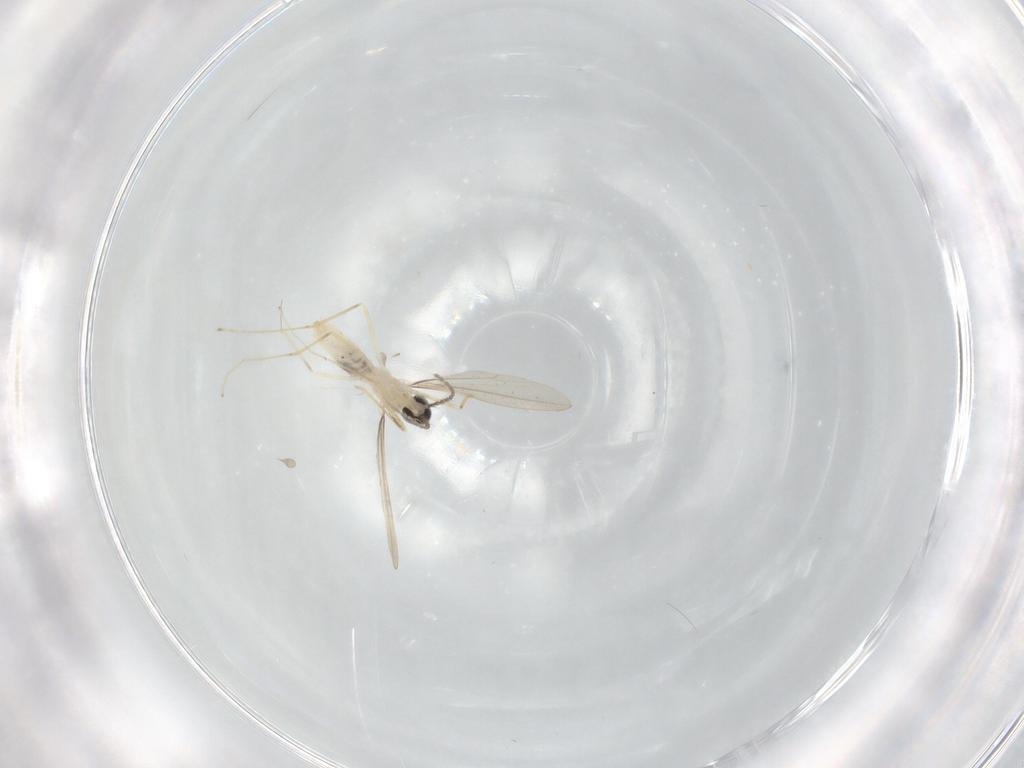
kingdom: Animalia
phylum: Arthropoda
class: Insecta
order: Diptera
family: Cecidomyiidae
